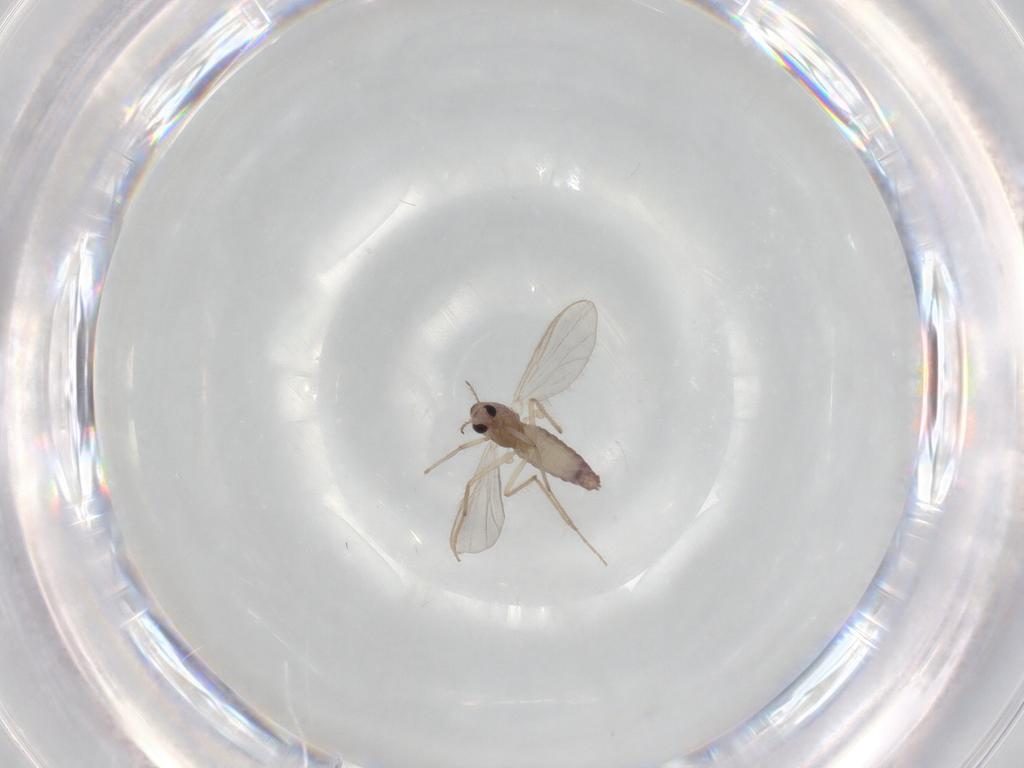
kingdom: Animalia
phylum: Arthropoda
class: Insecta
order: Diptera
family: Chironomidae
